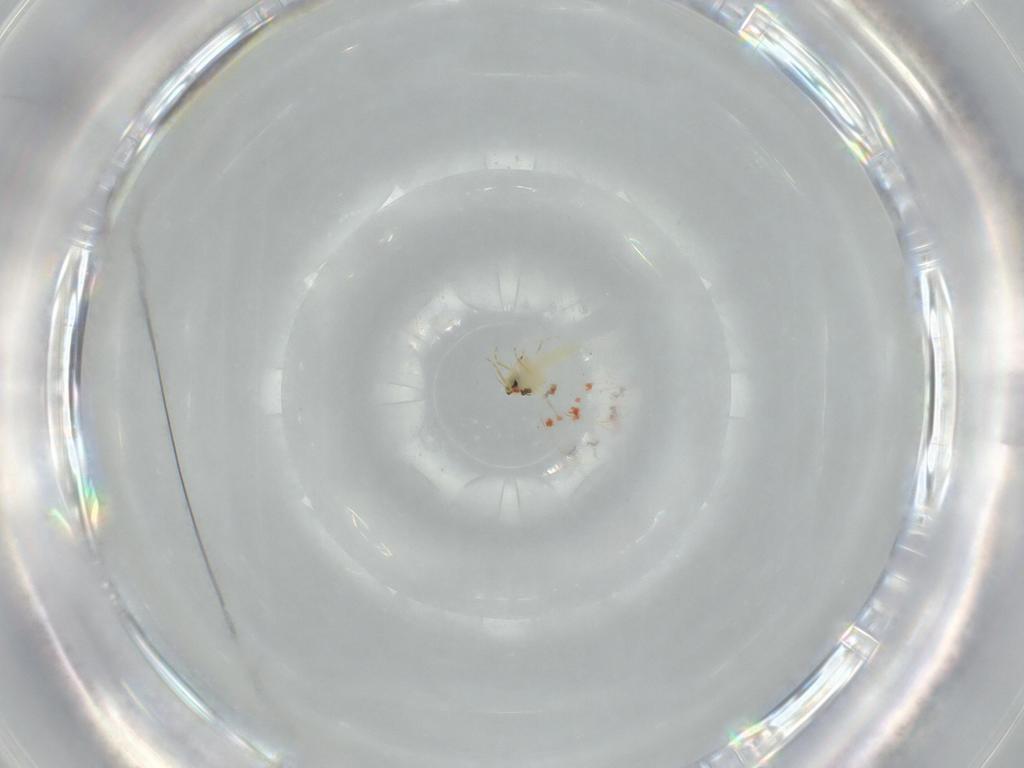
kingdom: Animalia
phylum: Arthropoda
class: Insecta
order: Hemiptera
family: Aleyrodidae
